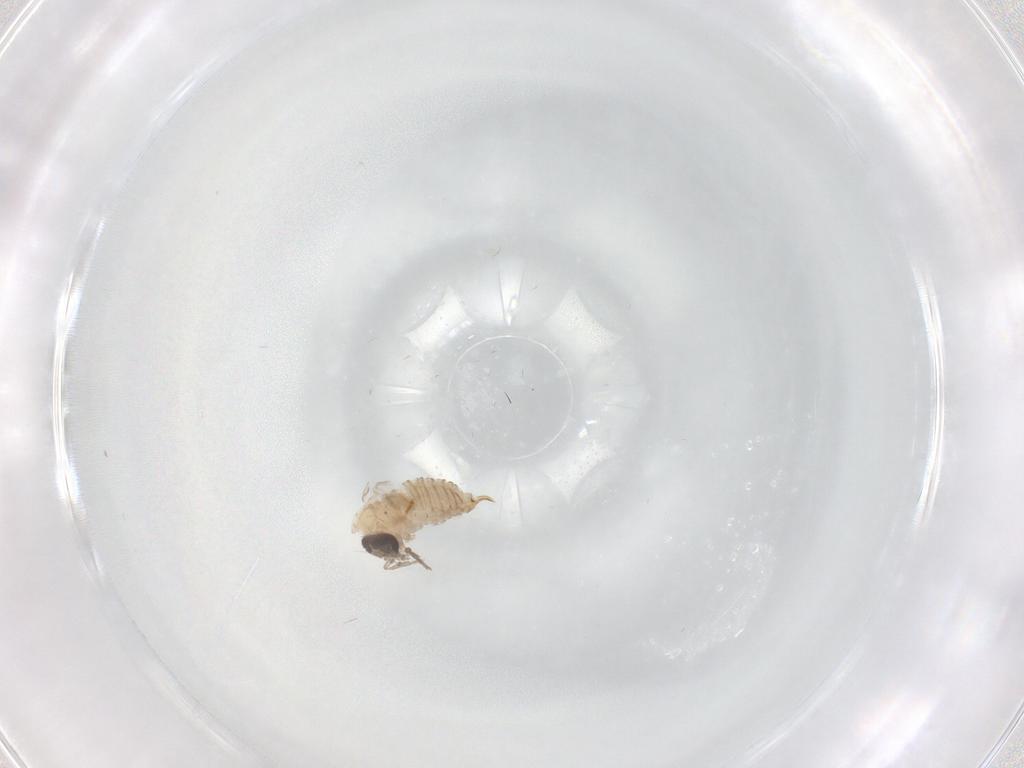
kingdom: Animalia
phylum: Arthropoda
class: Insecta
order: Diptera
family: Psychodidae
